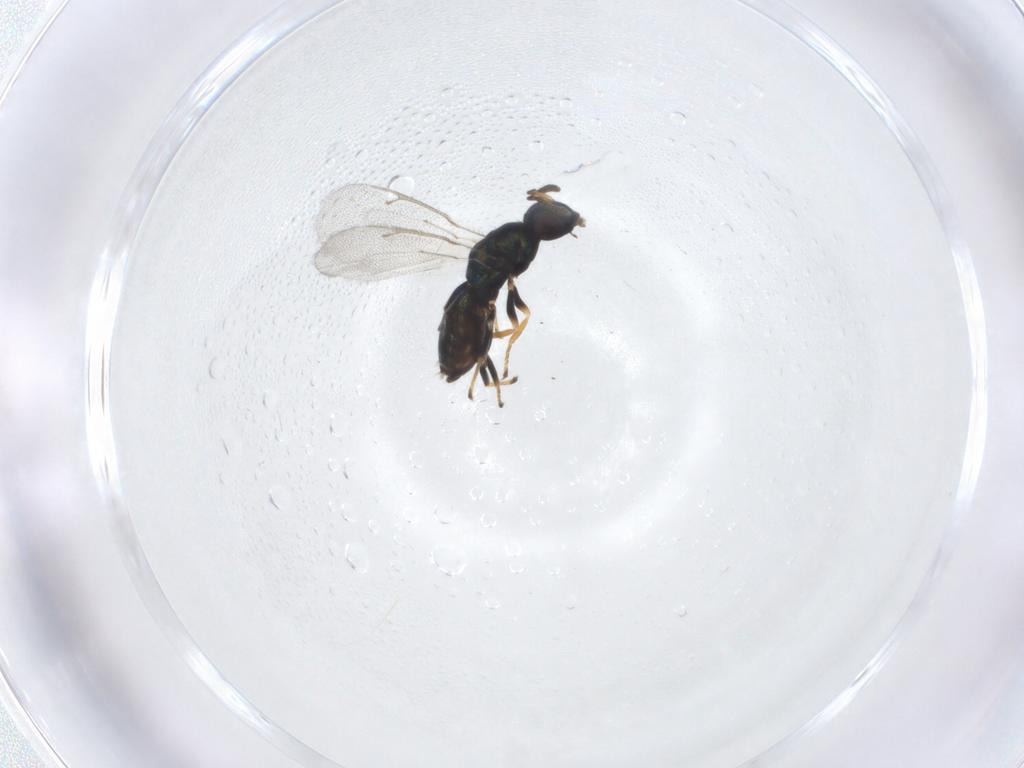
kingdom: Animalia
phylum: Arthropoda
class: Insecta
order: Hymenoptera
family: Pteromalidae
